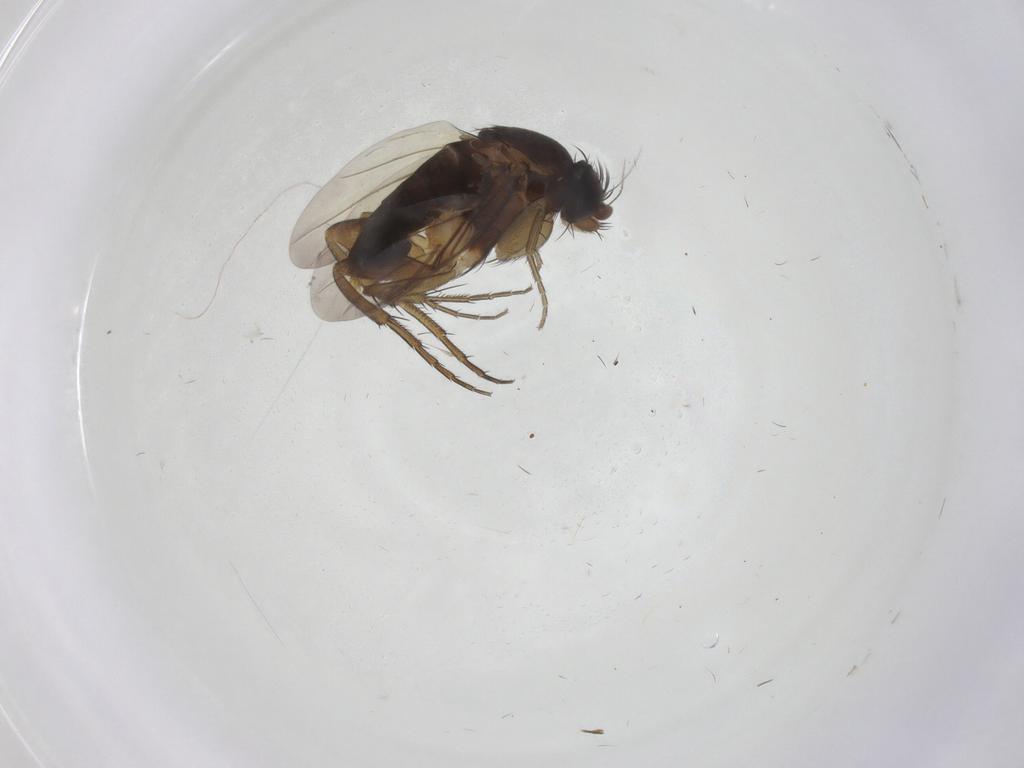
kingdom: Animalia
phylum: Arthropoda
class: Insecta
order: Diptera
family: Phoridae
